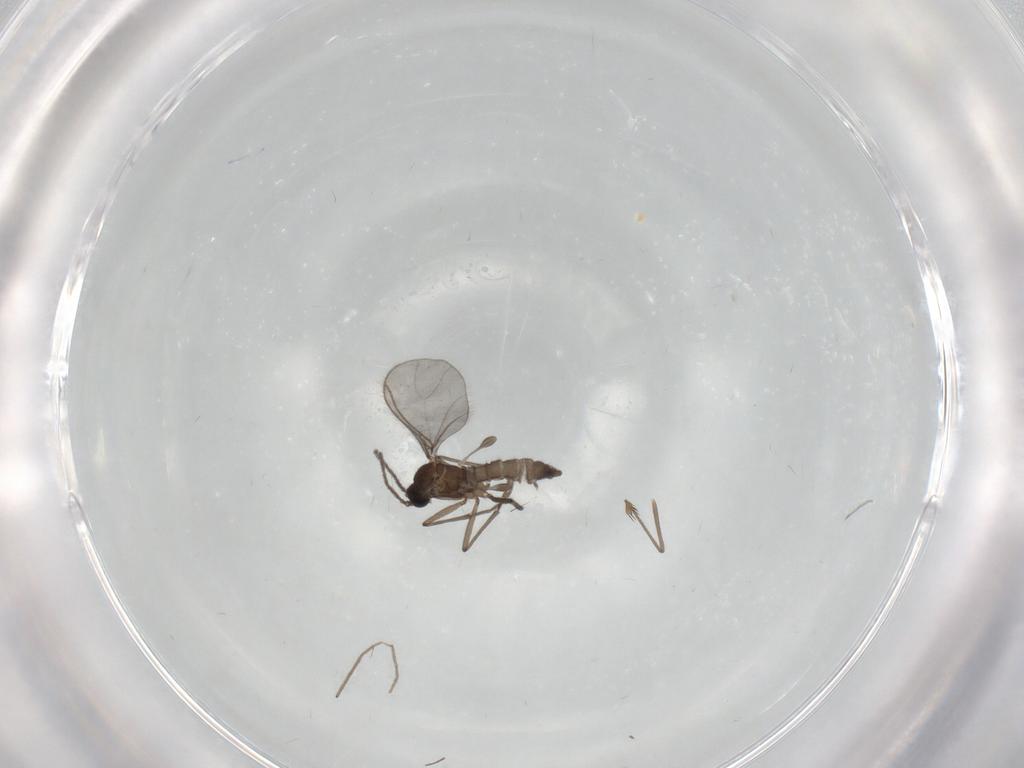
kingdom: Animalia
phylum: Arthropoda
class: Insecta
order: Diptera
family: Sciaridae
